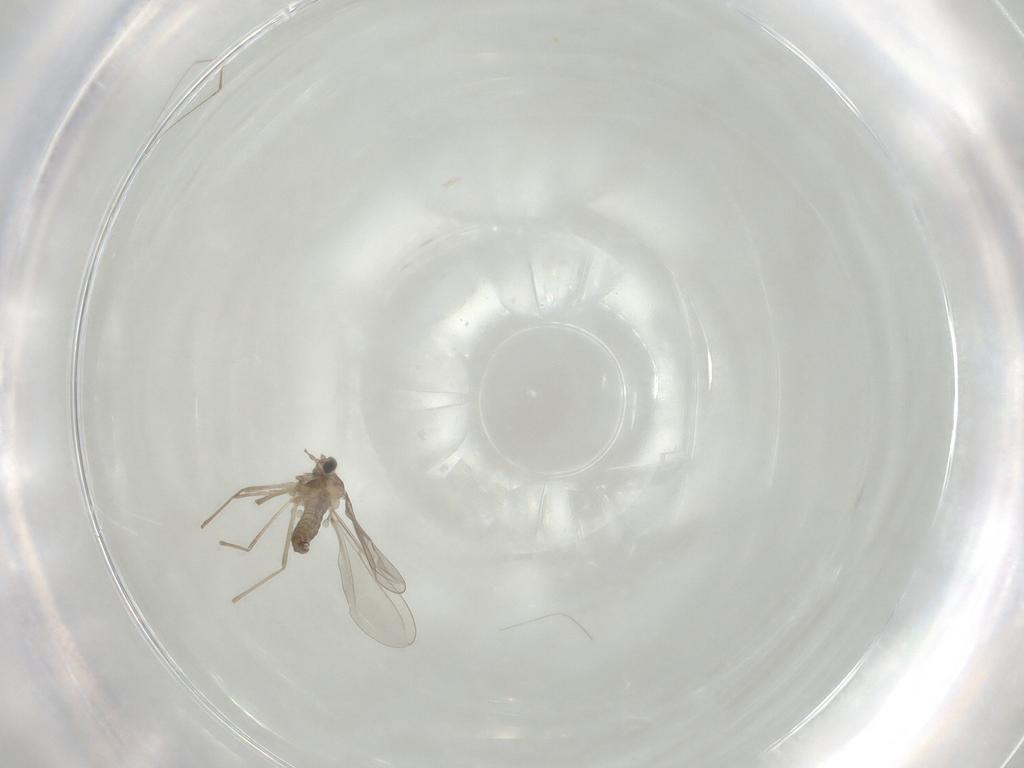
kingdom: Animalia
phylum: Arthropoda
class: Insecta
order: Diptera
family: Cecidomyiidae
